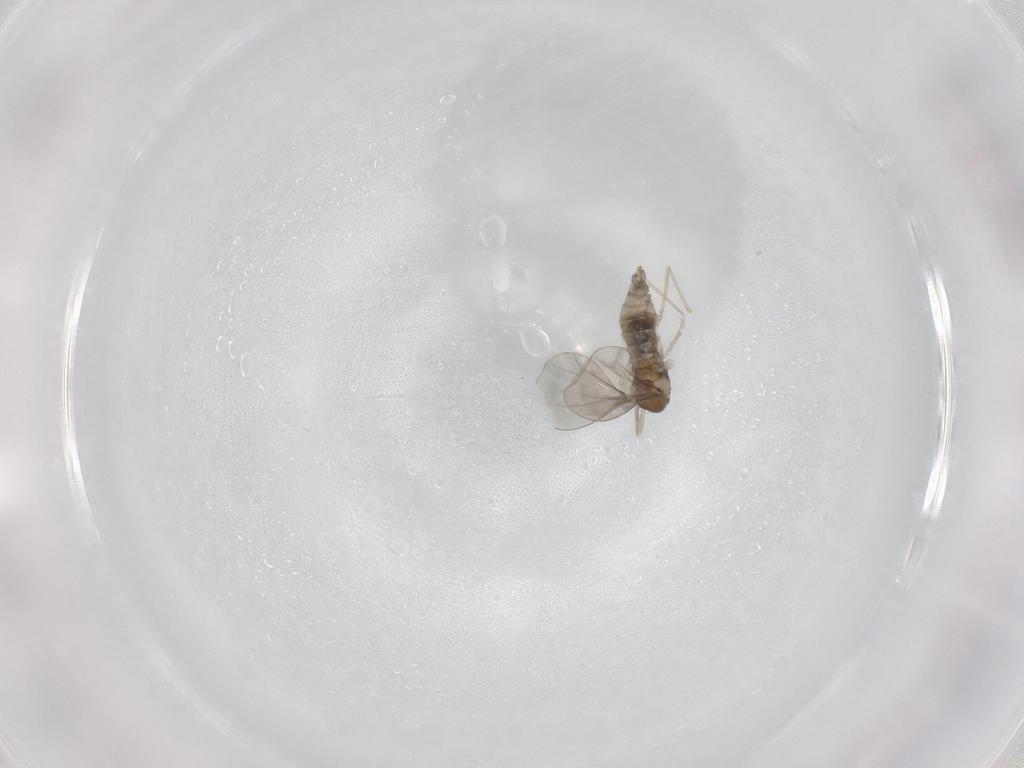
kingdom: Animalia
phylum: Arthropoda
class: Insecta
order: Diptera
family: Cecidomyiidae
